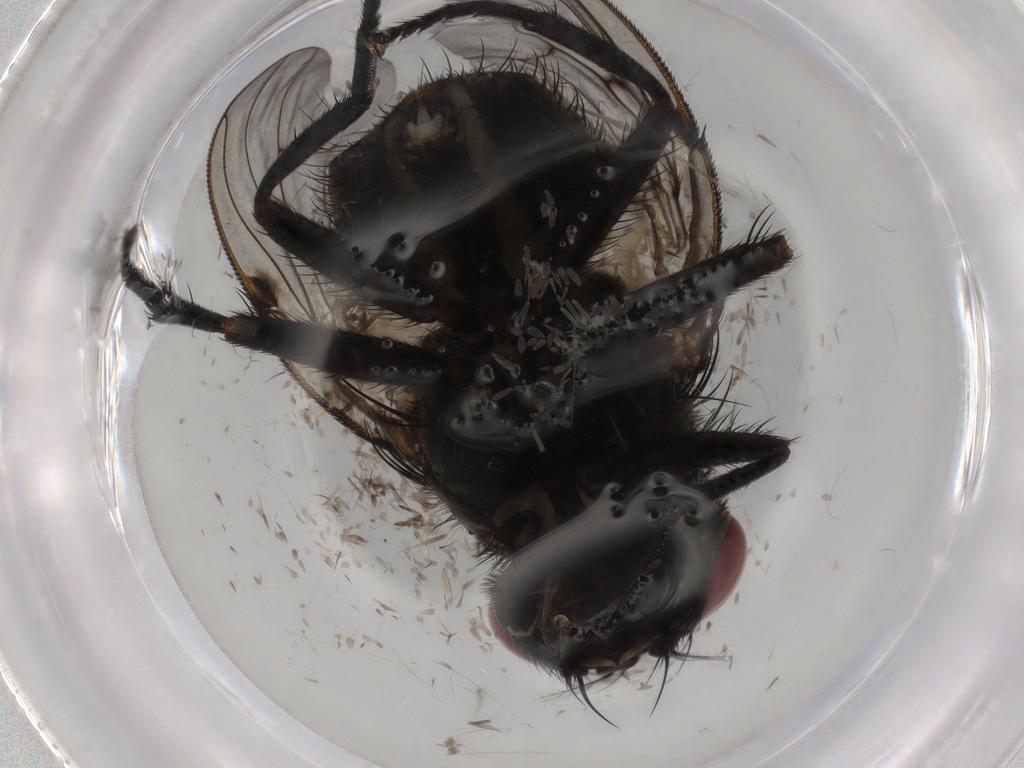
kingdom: Animalia
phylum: Arthropoda
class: Insecta
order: Diptera
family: Muscidae
